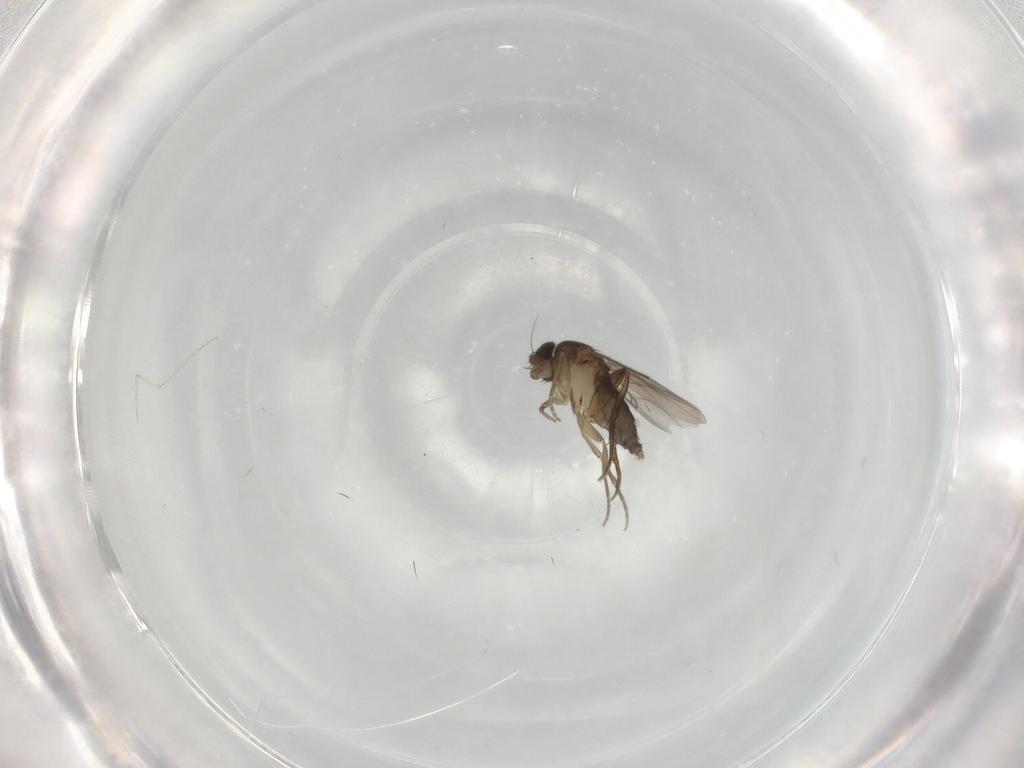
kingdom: Animalia
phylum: Arthropoda
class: Insecta
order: Diptera
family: Phoridae
